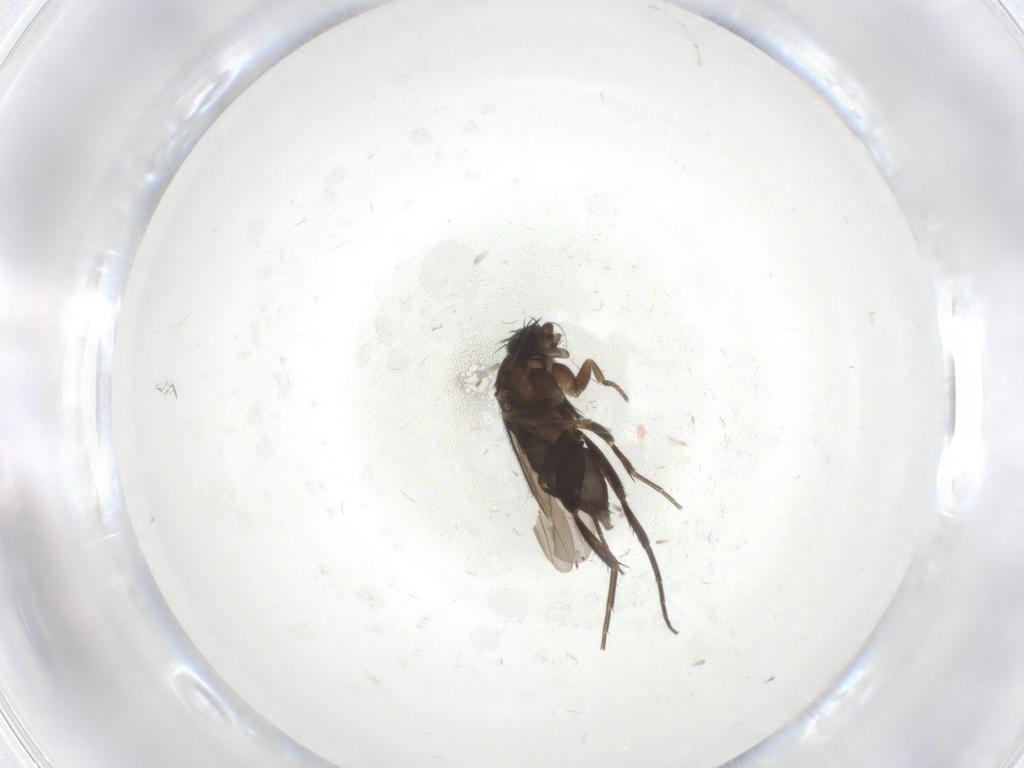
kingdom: Animalia
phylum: Arthropoda
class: Insecta
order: Diptera
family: Phoridae
